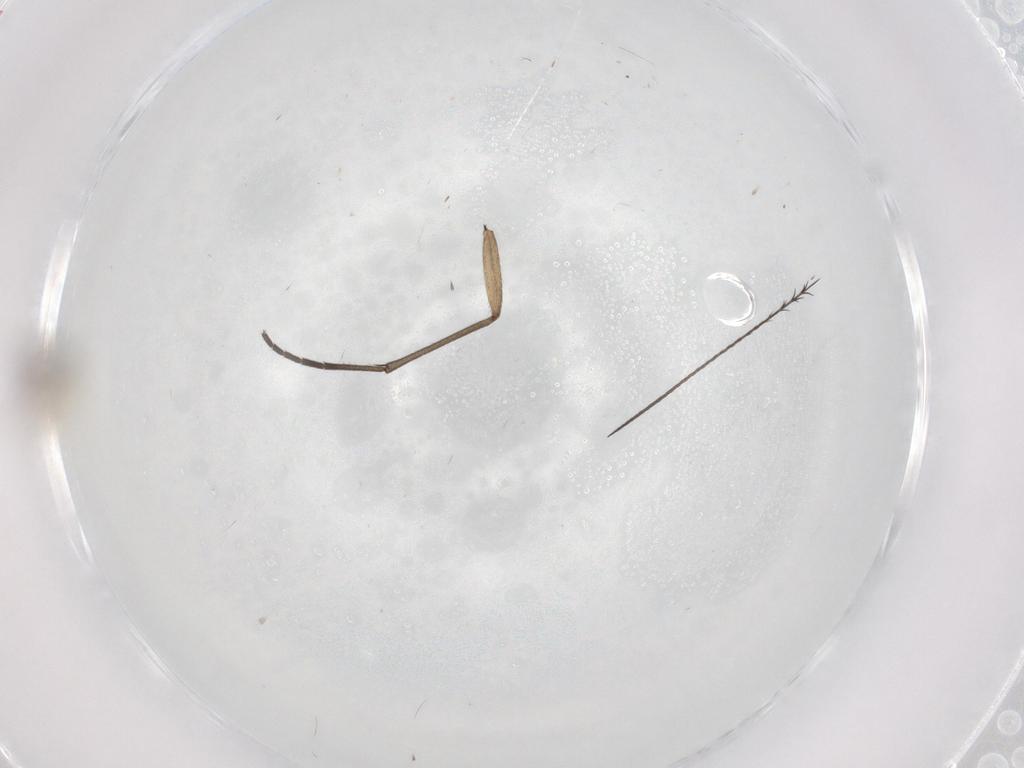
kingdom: Animalia
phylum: Arthropoda
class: Insecta
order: Diptera
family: Cecidomyiidae
